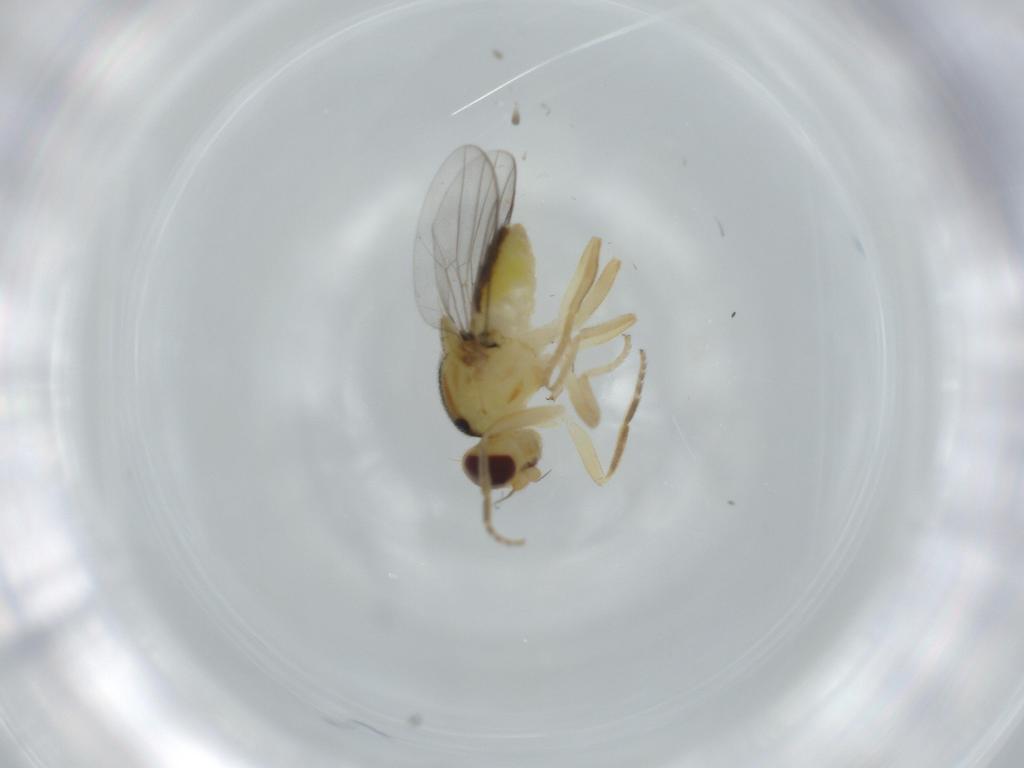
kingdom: Animalia
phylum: Arthropoda
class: Insecta
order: Diptera
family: Chloropidae
